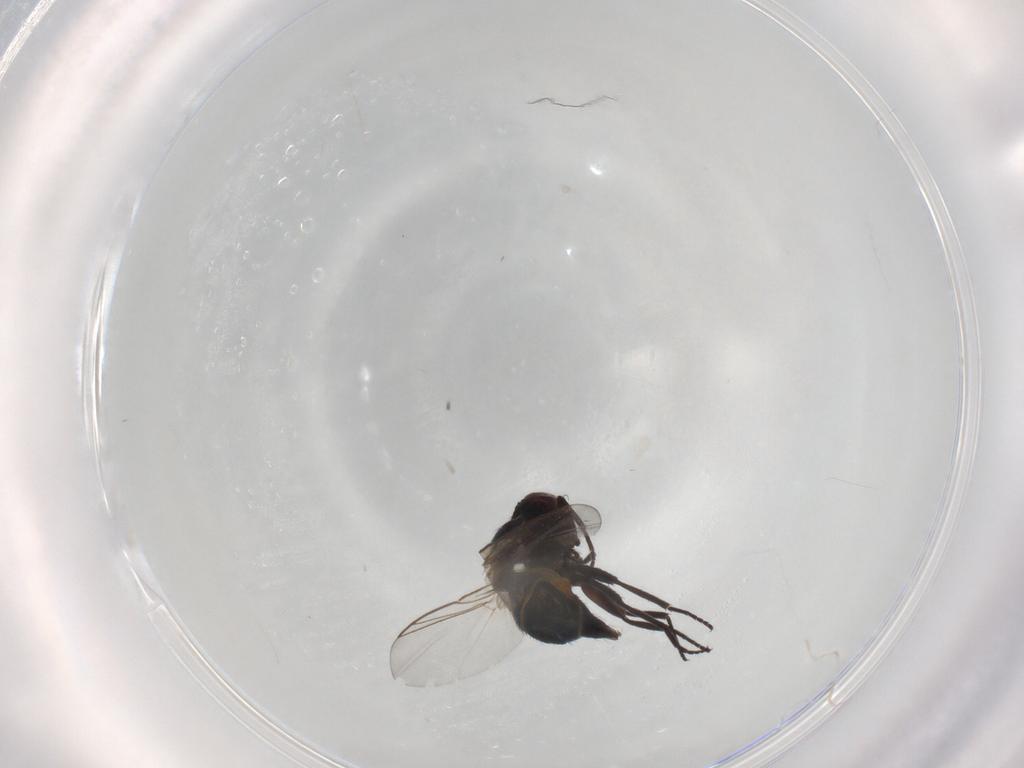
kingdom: Animalia
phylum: Arthropoda
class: Insecta
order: Diptera
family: Agromyzidae
